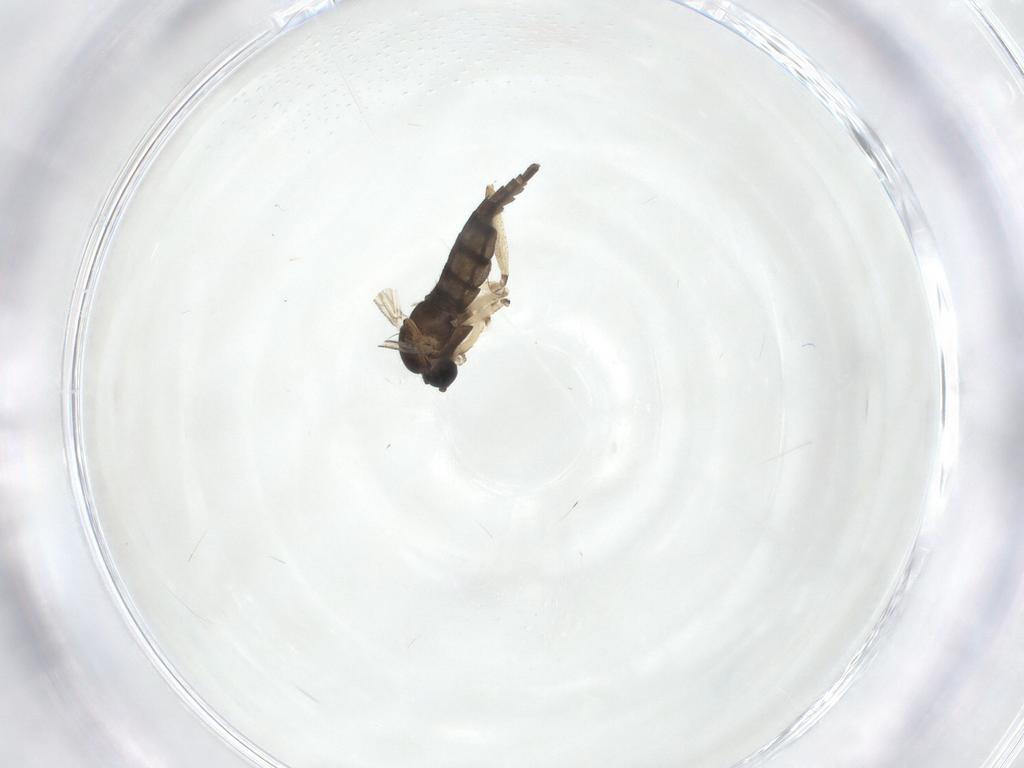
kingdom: Animalia
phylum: Arthropoda
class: Insecta
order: Diptera
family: Sciaridae
